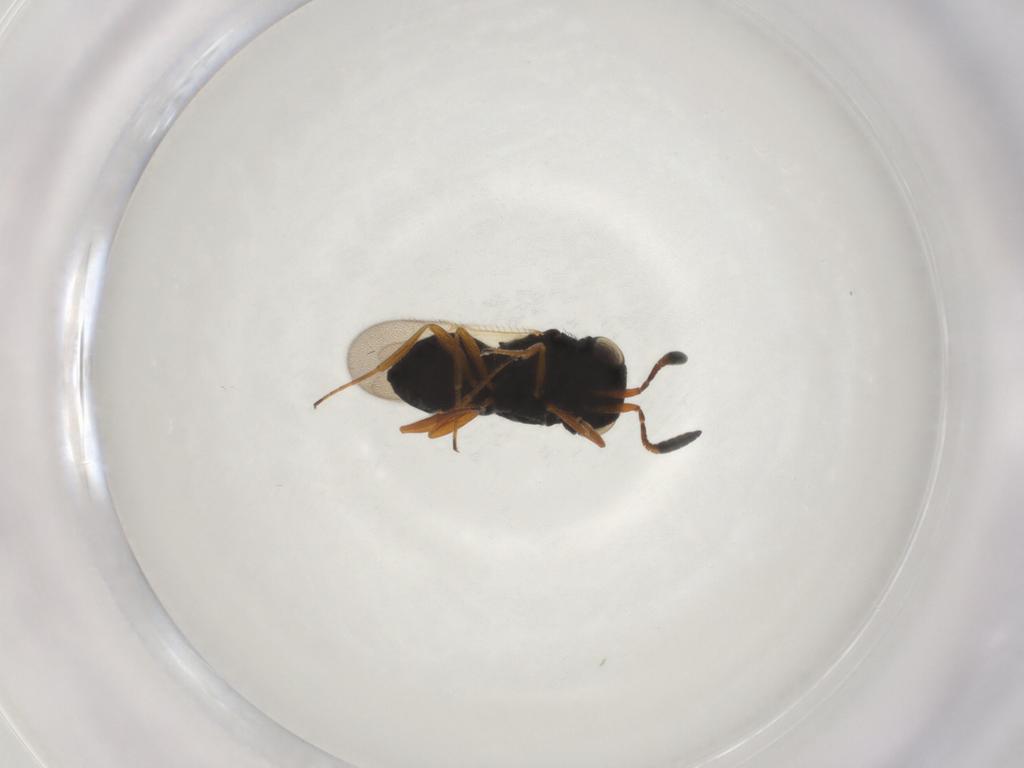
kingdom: Animalia
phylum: Arthropoda
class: Insecta
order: Hymenoptera
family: Scelionidae
